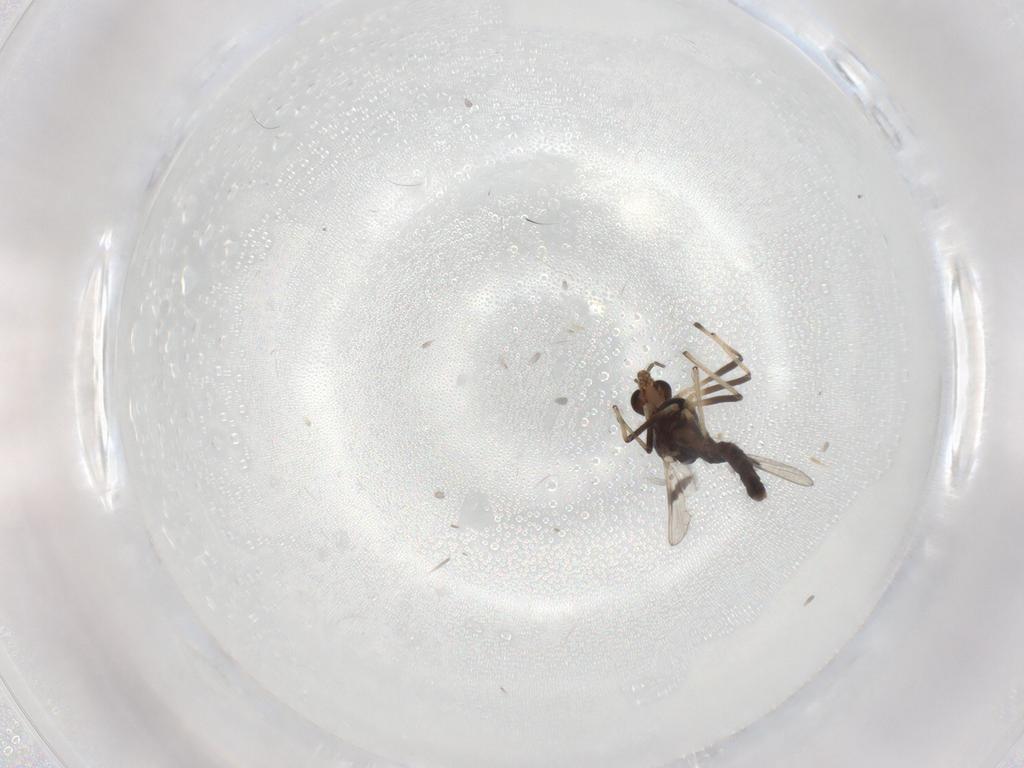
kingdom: Animalia
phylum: Arthropoda
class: Insecta
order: Diptera
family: Chironomidae
